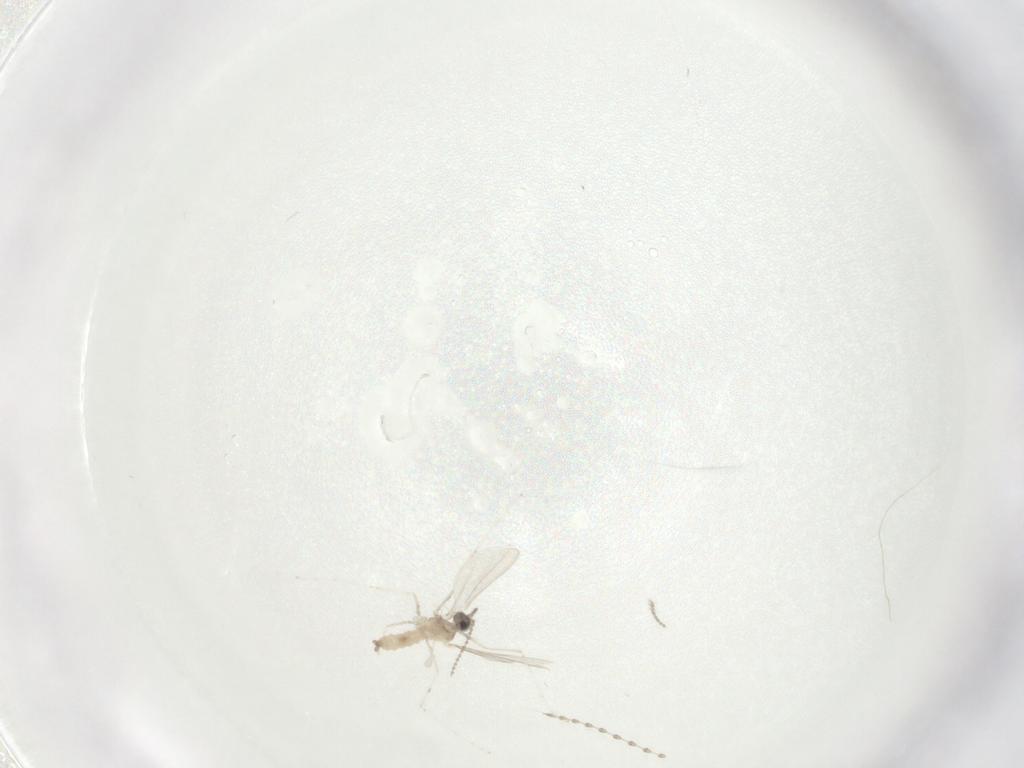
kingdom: Animalia
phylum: Arthropoda
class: Insecta
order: Diptera
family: Cecidomyiidae
